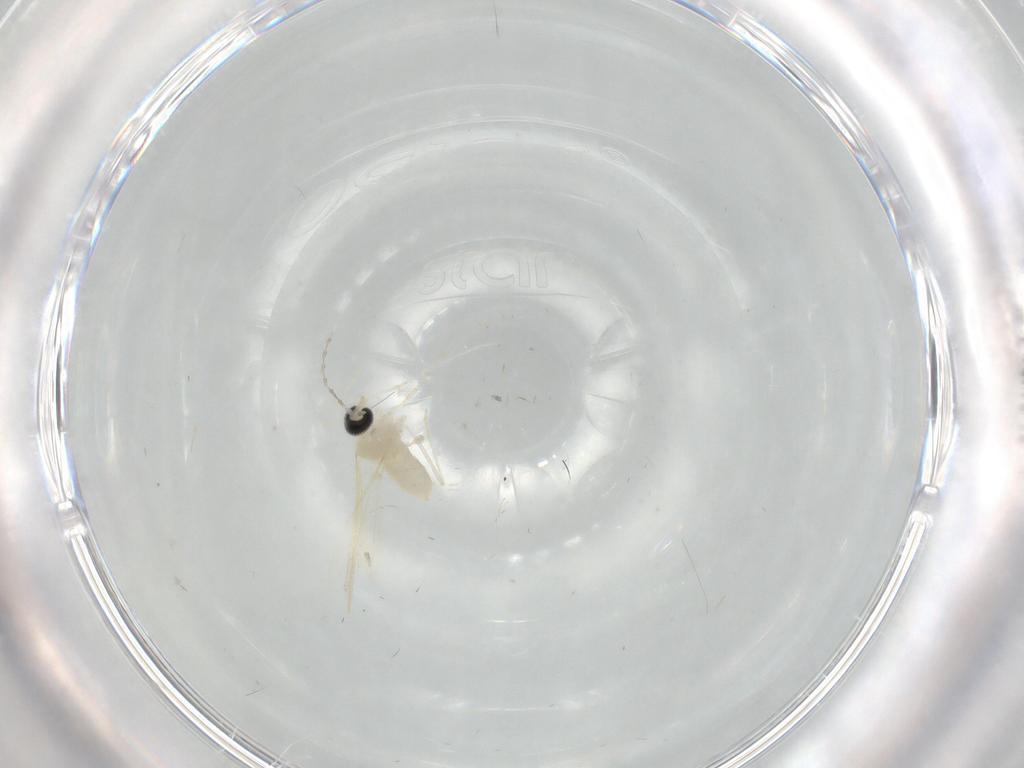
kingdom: Animalia
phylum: Arthropoda
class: Insecta
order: Diptera
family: Cecidomyiidae
